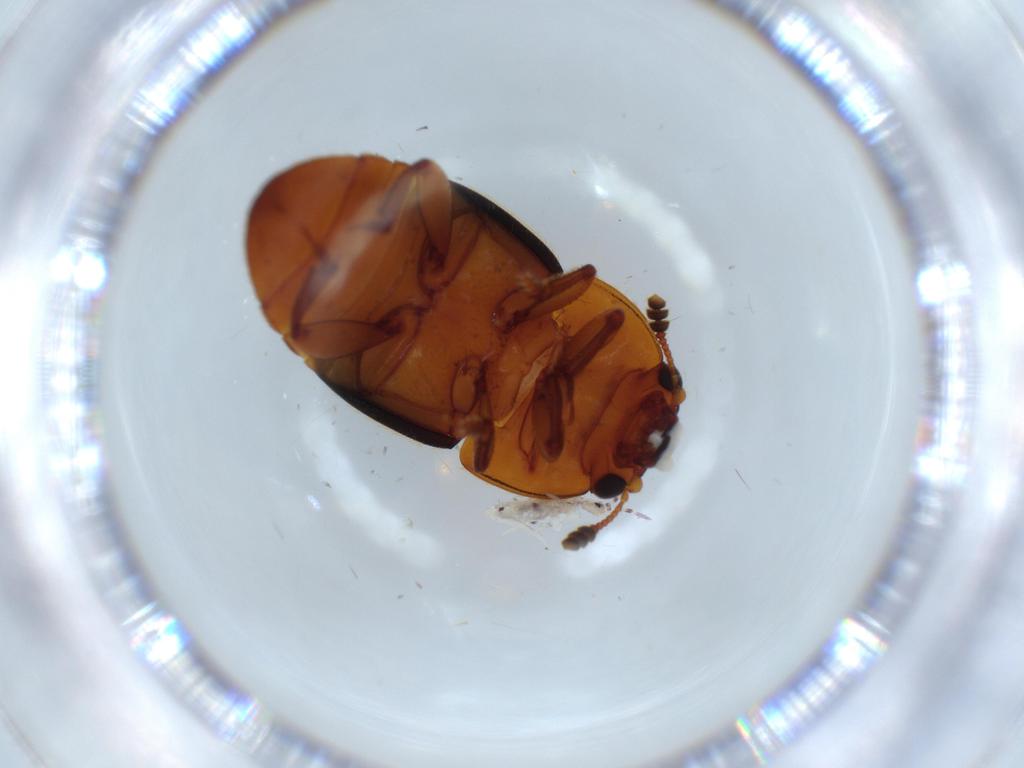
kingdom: Animalia
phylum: Arthropoda
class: Insecta
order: Coleoptera
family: Nitidulidae
